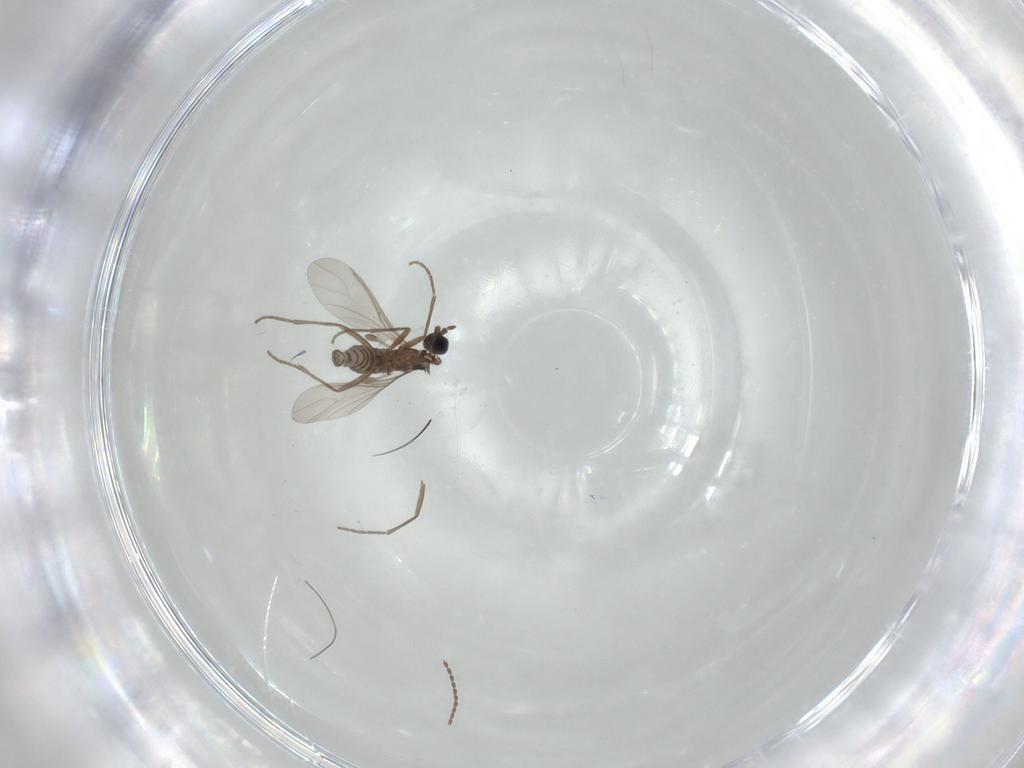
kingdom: Animalia
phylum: Arthropoda
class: Insecta
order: Diptera
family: Sciaridae
